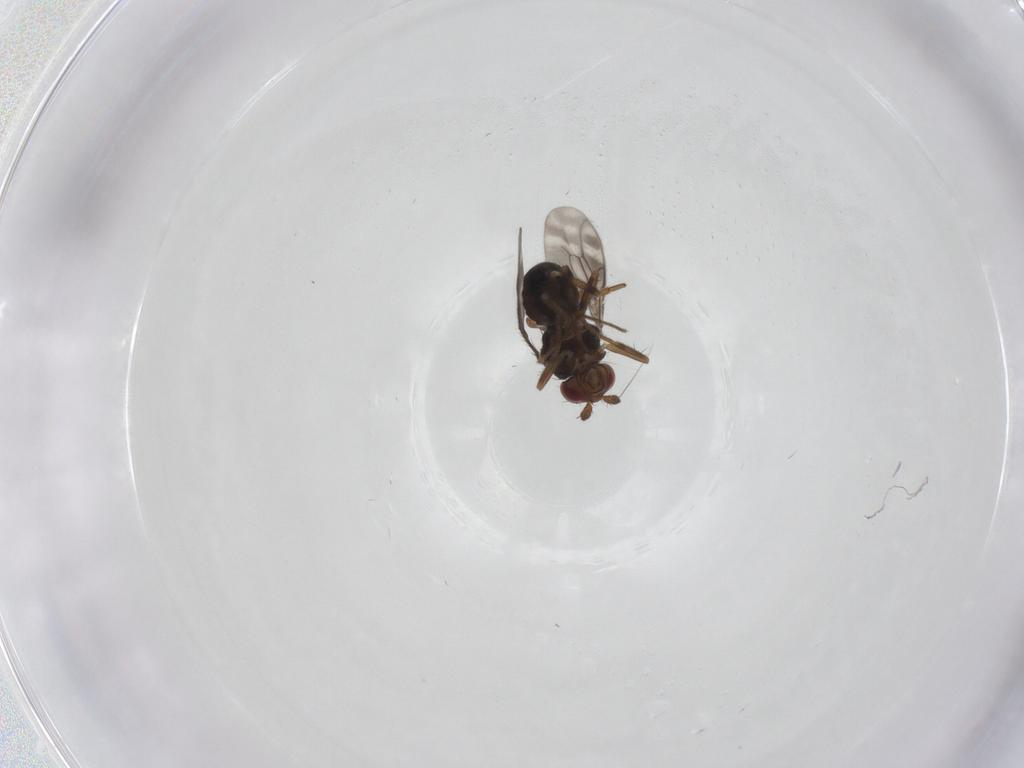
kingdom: Animalia
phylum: Arthropoda
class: Insecta
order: Diptera
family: Sphaeroceridae
